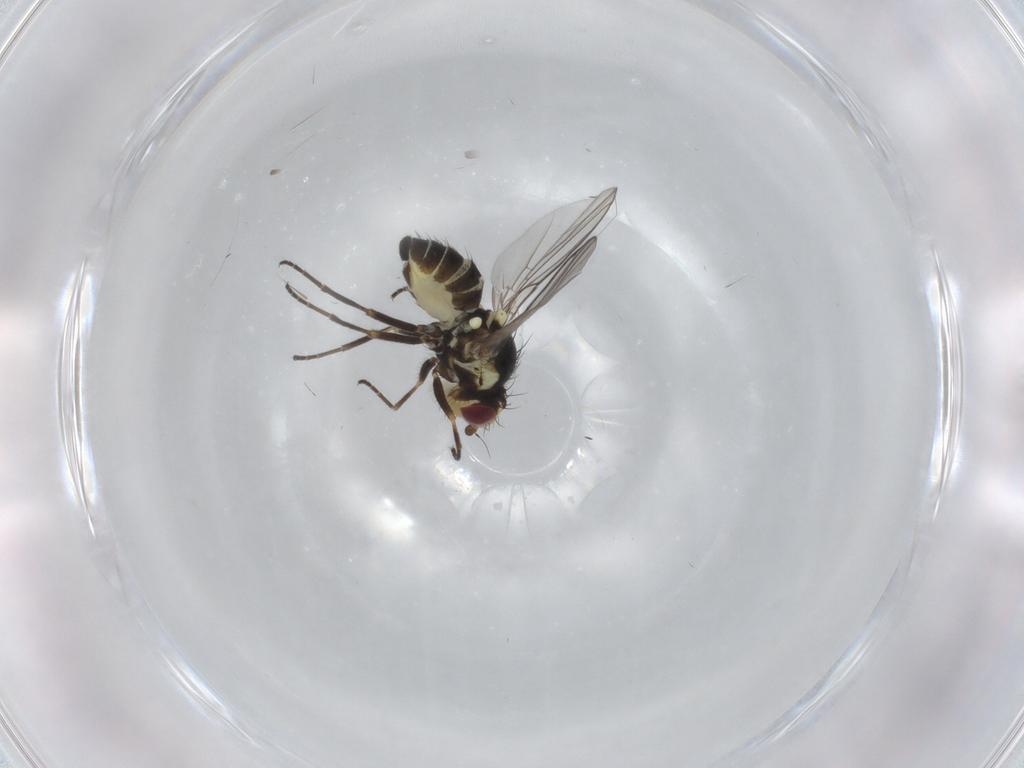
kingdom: Animalia
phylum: Arthropoda
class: Insecta
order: Diptera
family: Agromyzidae
